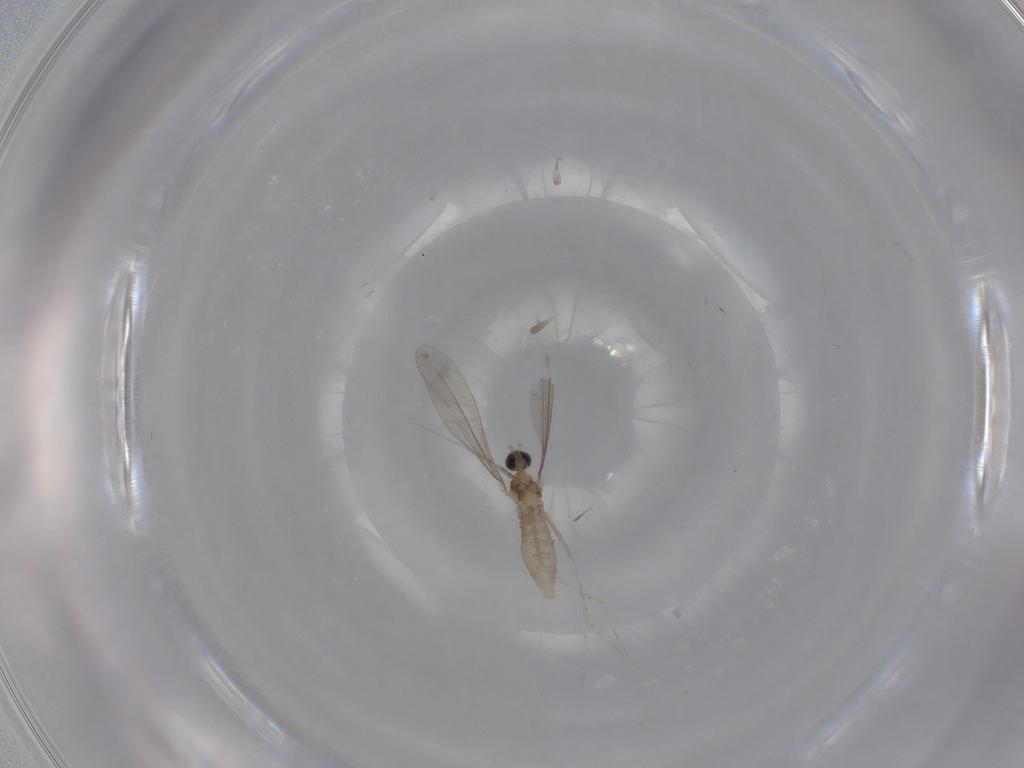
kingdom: Animalia
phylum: Arthropoda
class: Insecta
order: Diptera
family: Cecidomyiidae
